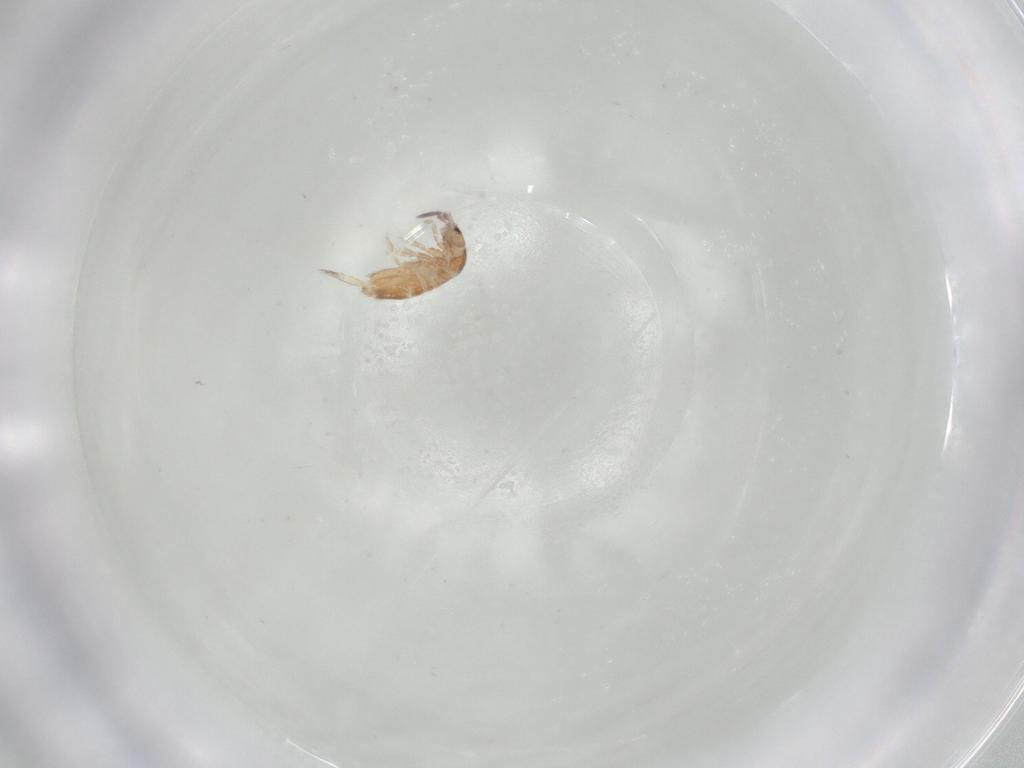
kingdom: Animalia
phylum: Arthropoda
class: Collembola
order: Entomobryomorpha
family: Entomobryidae
